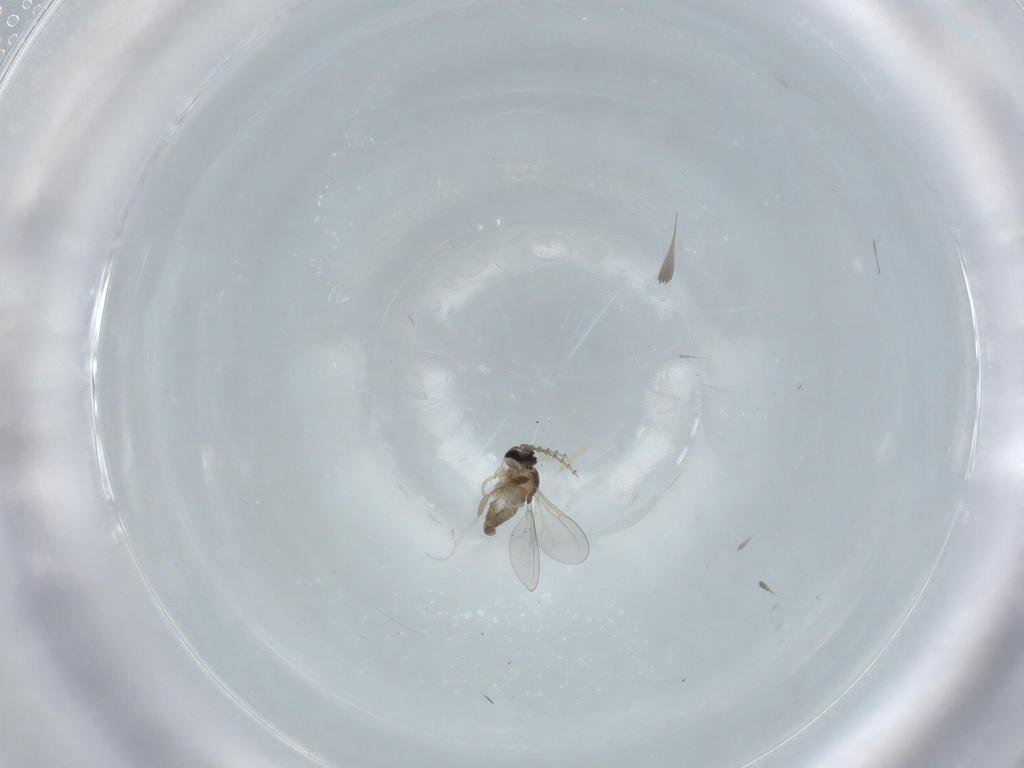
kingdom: Animalia
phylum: Arthropoda
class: Insecta
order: Diptera
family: Cecidomyiidae
